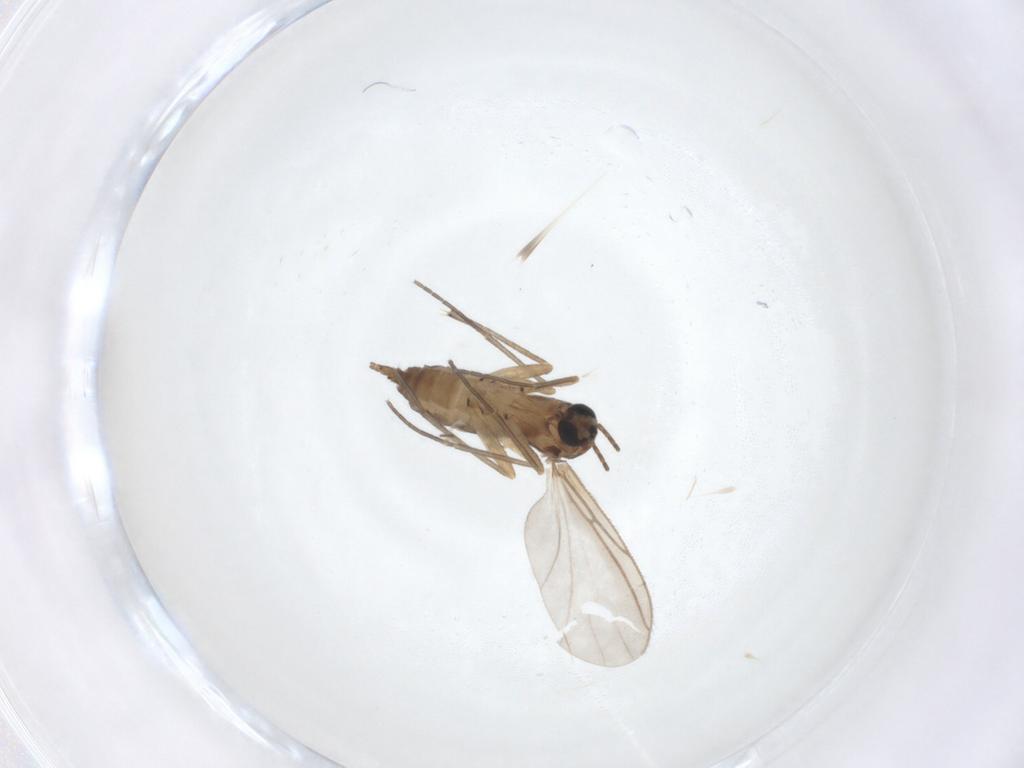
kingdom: Animalia
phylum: Arthropoda
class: Insecta
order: Diptera
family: Sciaridae
